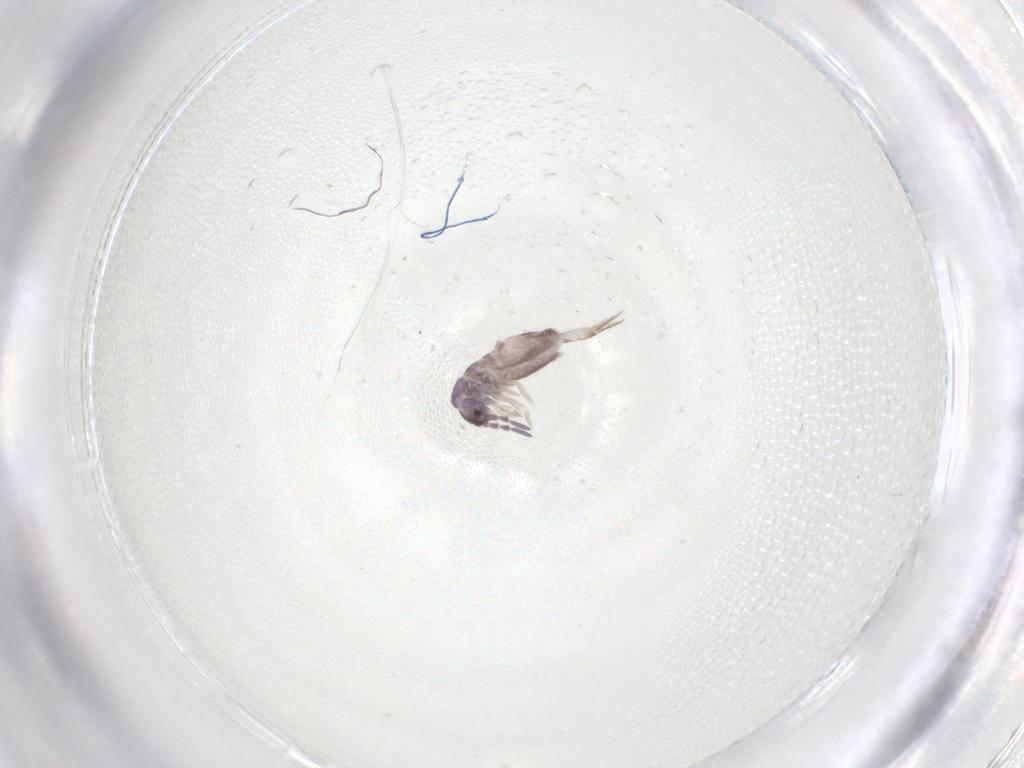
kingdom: Animalia
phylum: Arthropoda
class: Collembola
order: Entomobryomorpha
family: Entomobryidae
